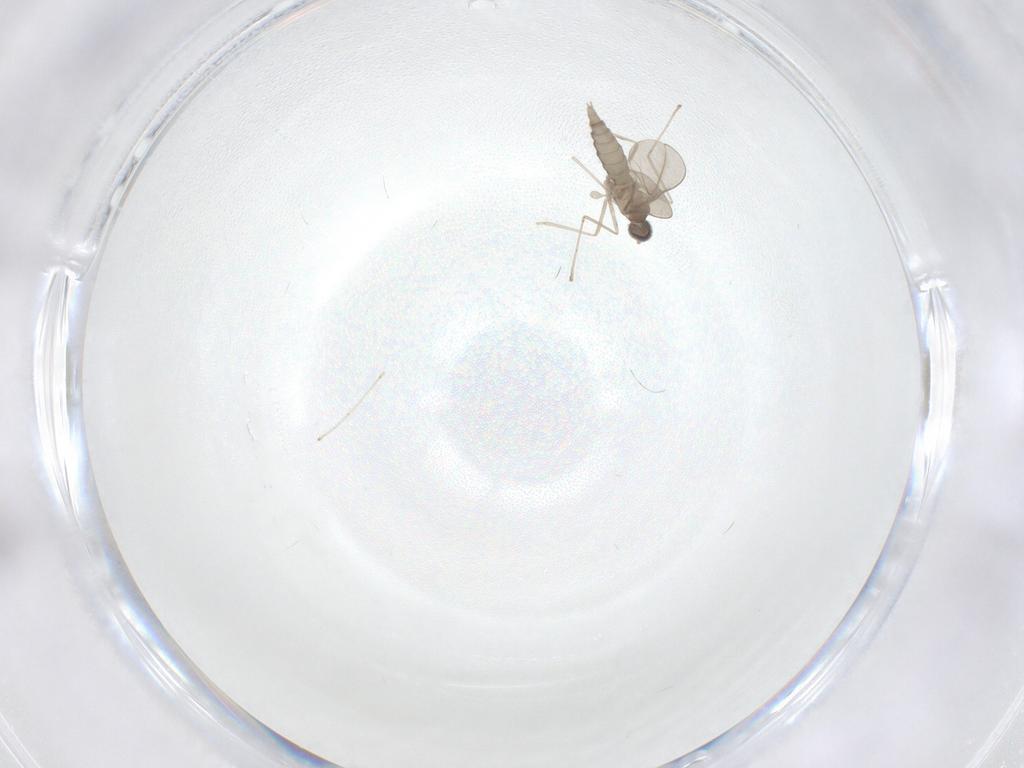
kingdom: Animalia
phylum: Arthropoda
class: Insecta
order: Diptera
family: Cecidomyiidae
